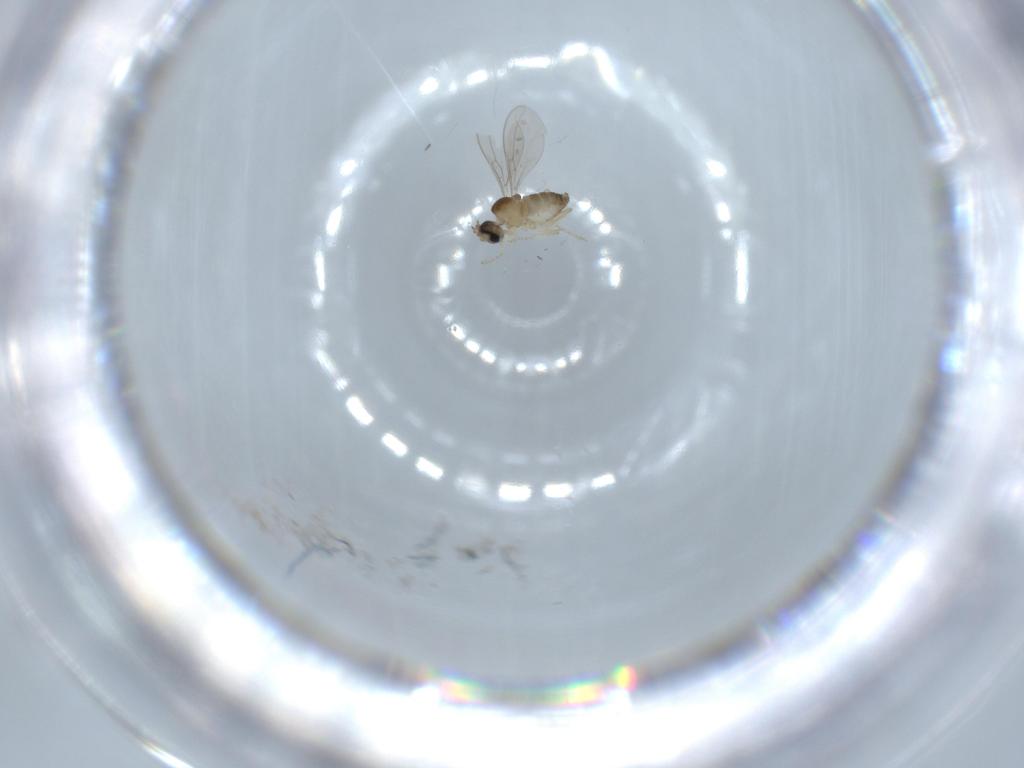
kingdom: Animalia
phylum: Arthropoda
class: Insecta
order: Diptera
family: Cecidomyiidae
